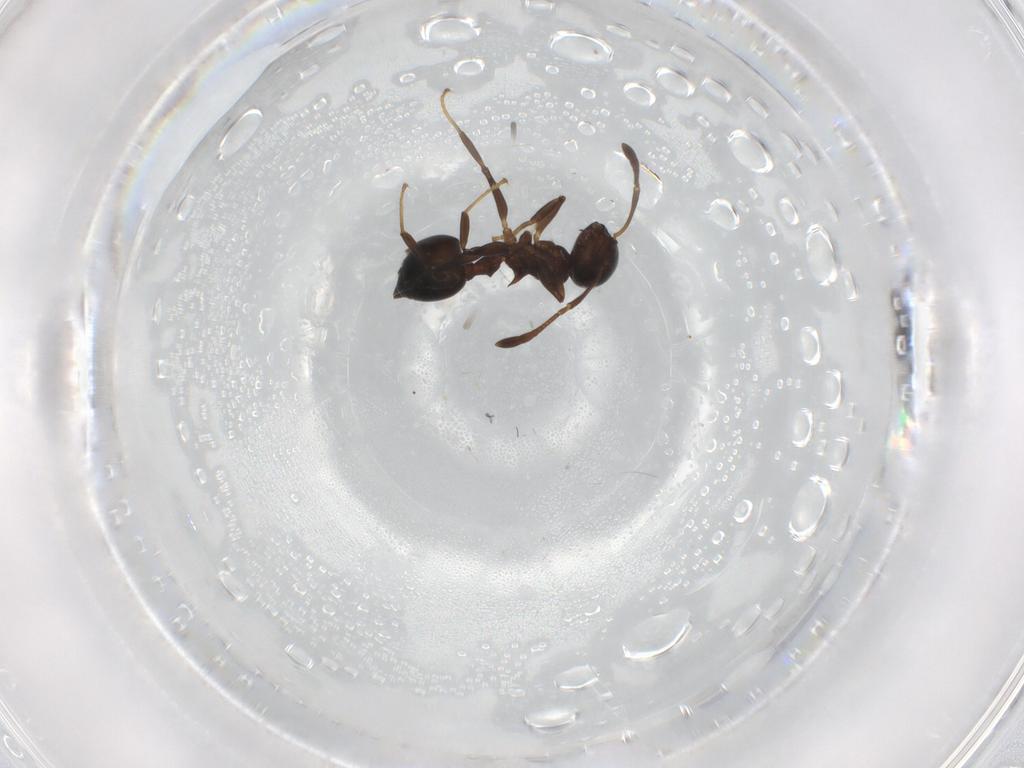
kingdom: Animalia
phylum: Arthropoda
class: Insecta
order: Hymenoptera
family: Formicidae
